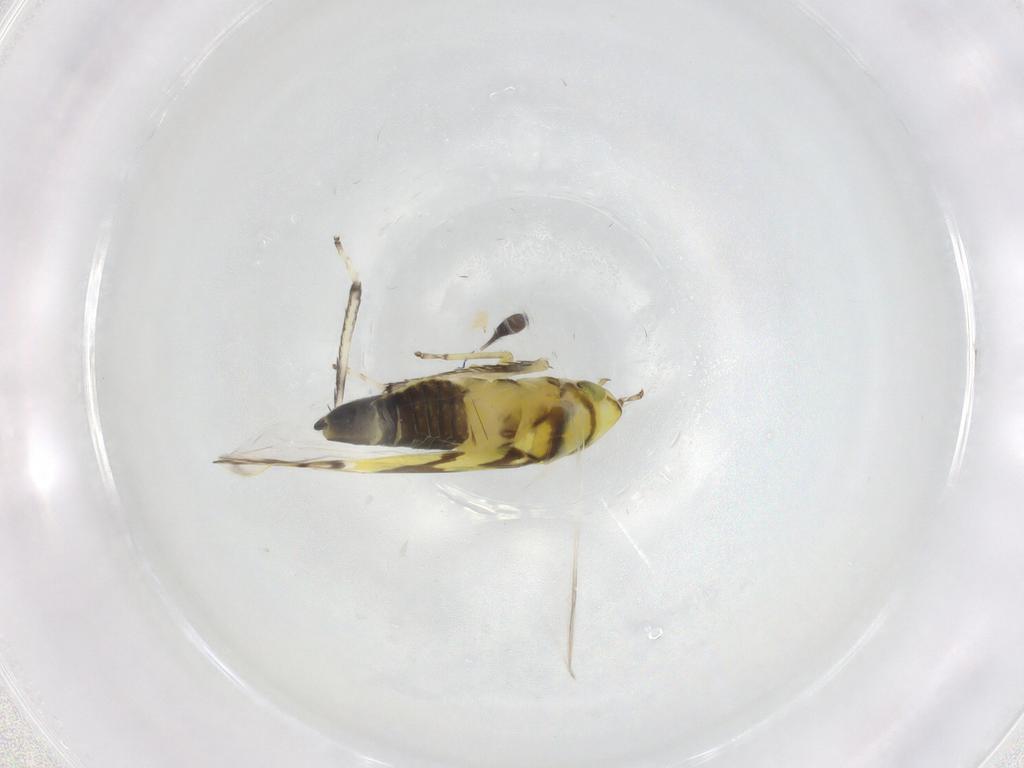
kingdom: Animalia
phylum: Arthropoda
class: Insecta
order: Hemiptera
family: Cicadellidae
